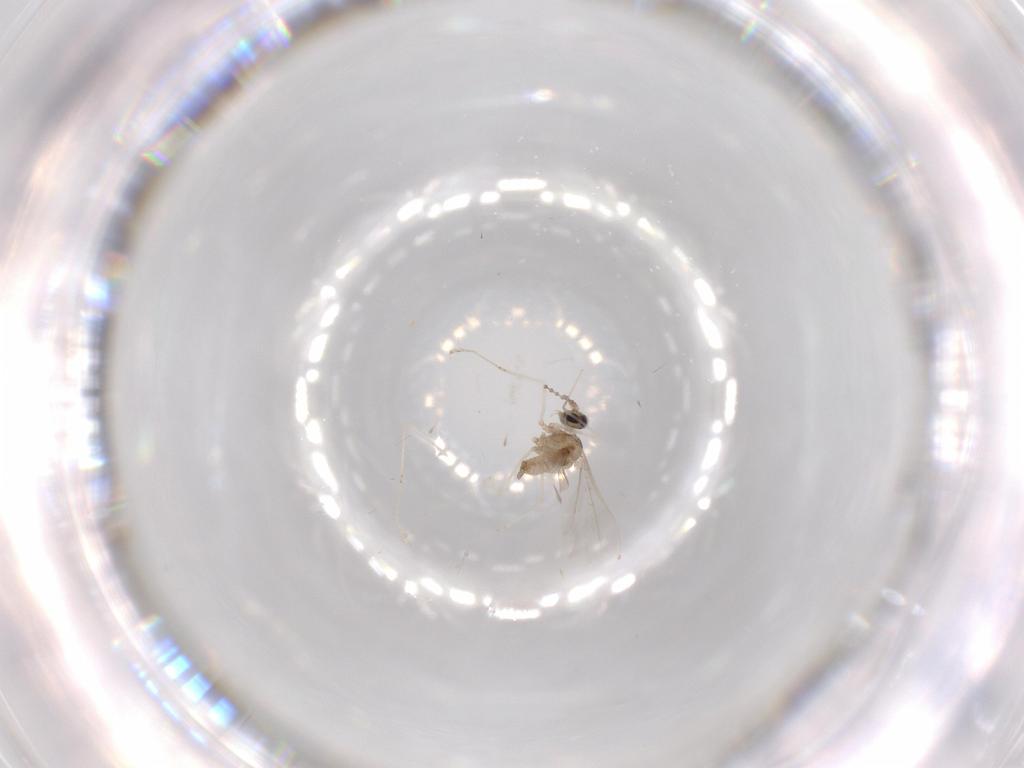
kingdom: Animalia
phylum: Arthropoda
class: Insecta
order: Diptera
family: Cecidomyiidae
